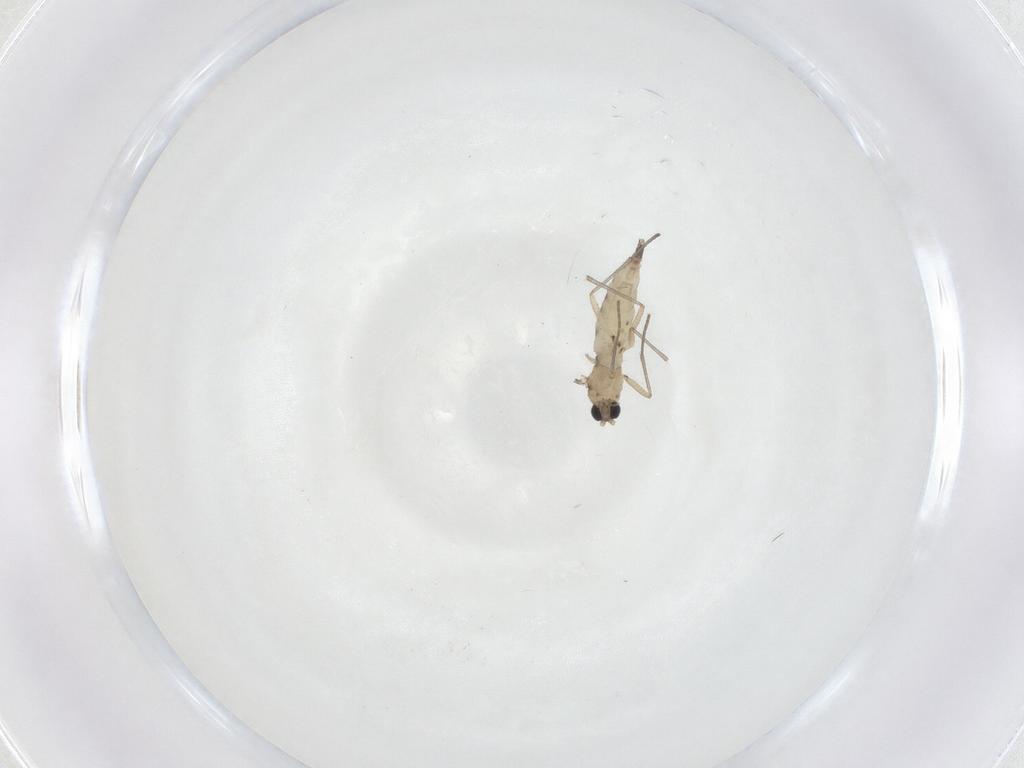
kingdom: Animalia
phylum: Arthropoda
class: Insecta
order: Diptera
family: Sciaridae
